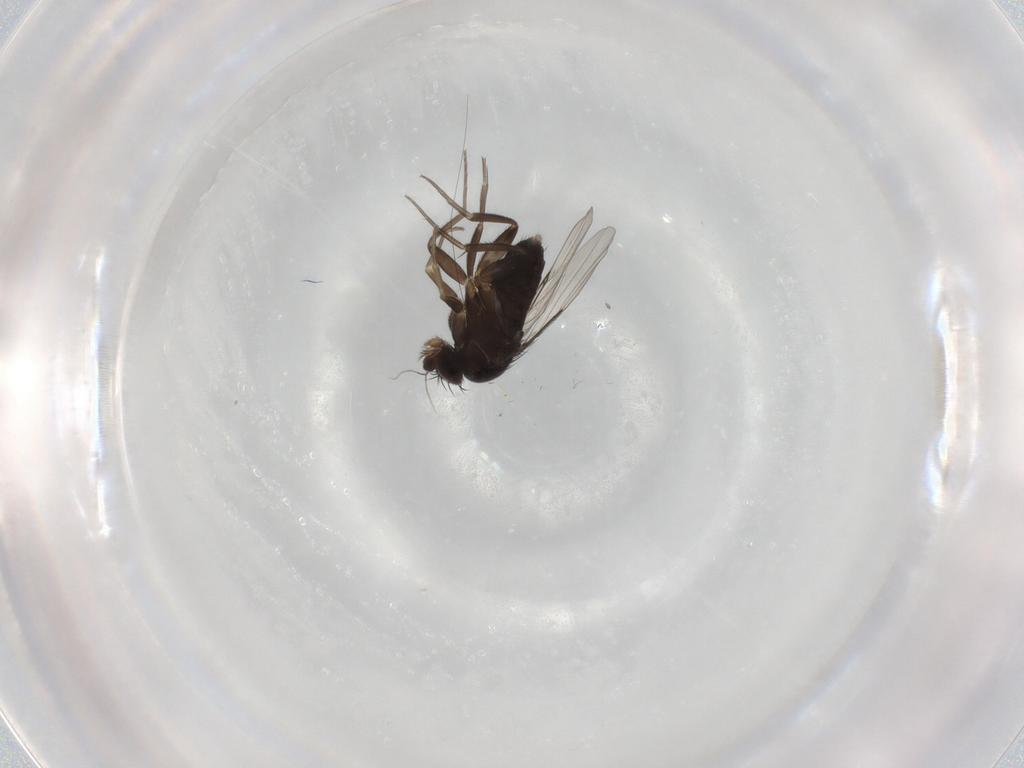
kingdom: Animalia
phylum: Arthropoda
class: Insecta
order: Diptera
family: Phoridae
